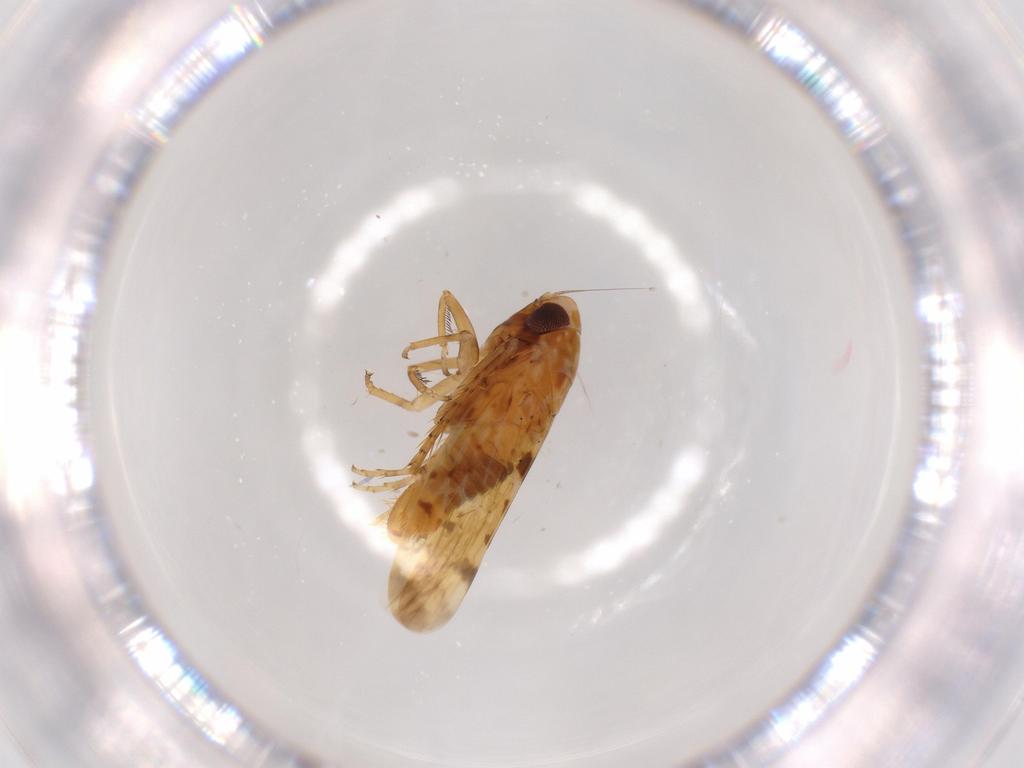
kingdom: Animalia
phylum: Arthropoda
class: Insecta
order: Hemiptera
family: Cicadellidae
